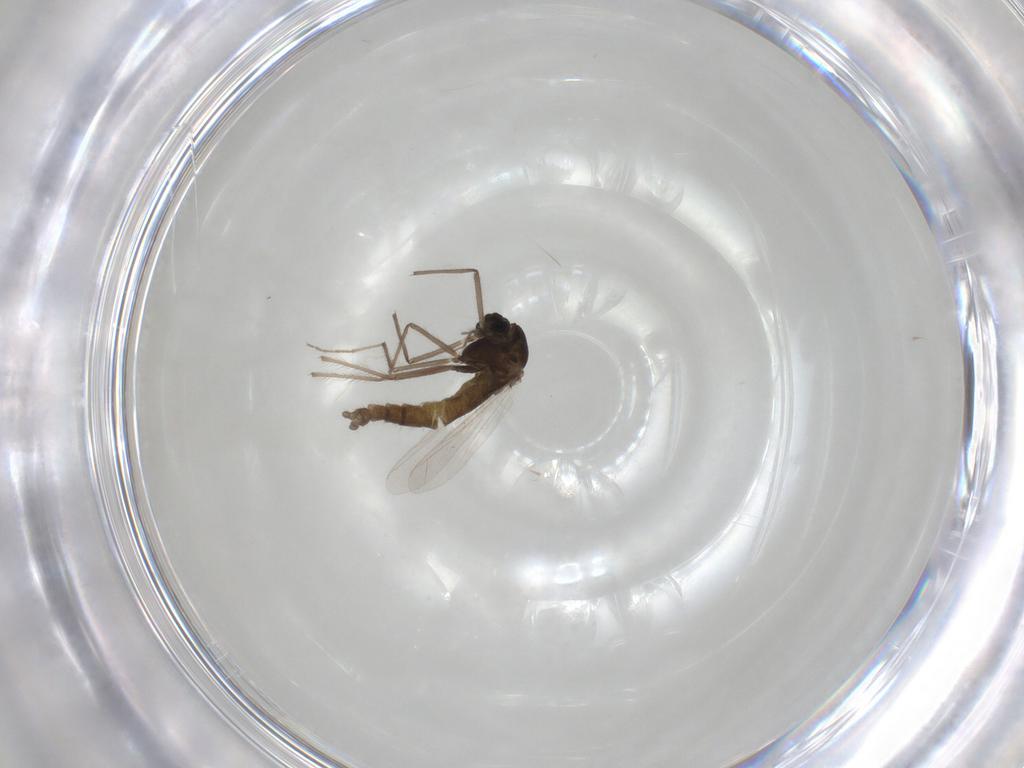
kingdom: Animalia
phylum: Arthropoda
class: Insecta
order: Diptera
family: Chironomidae
